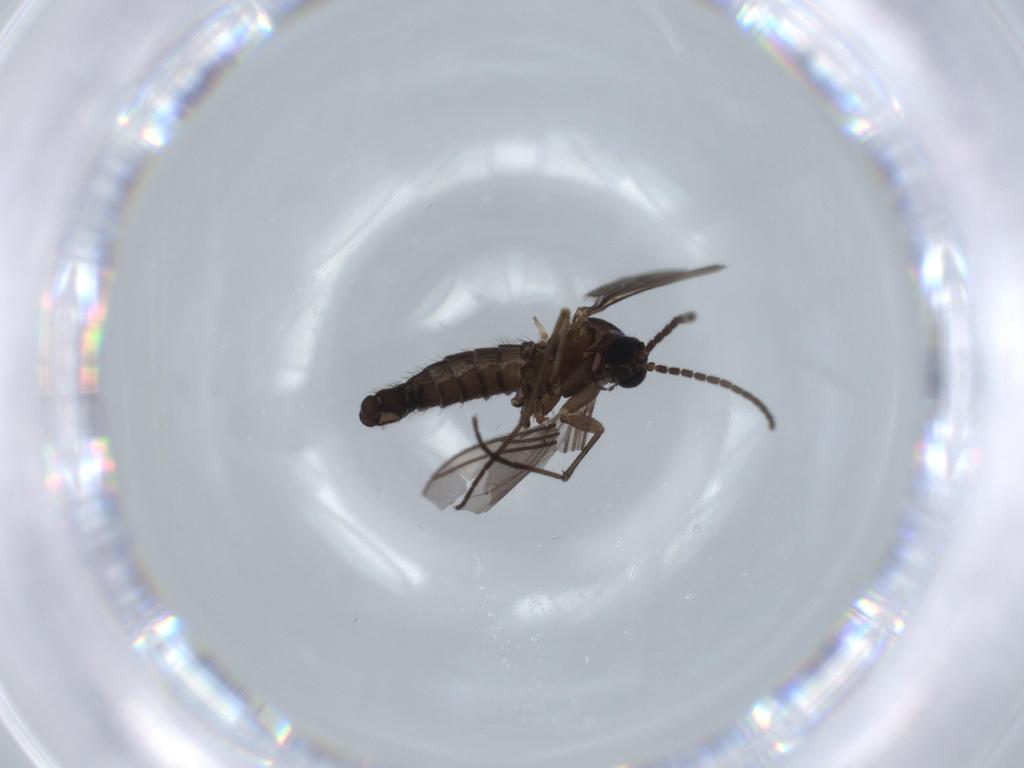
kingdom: Animalia
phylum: Arthropoda
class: Insecta
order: Diptera
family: Sciaridae
